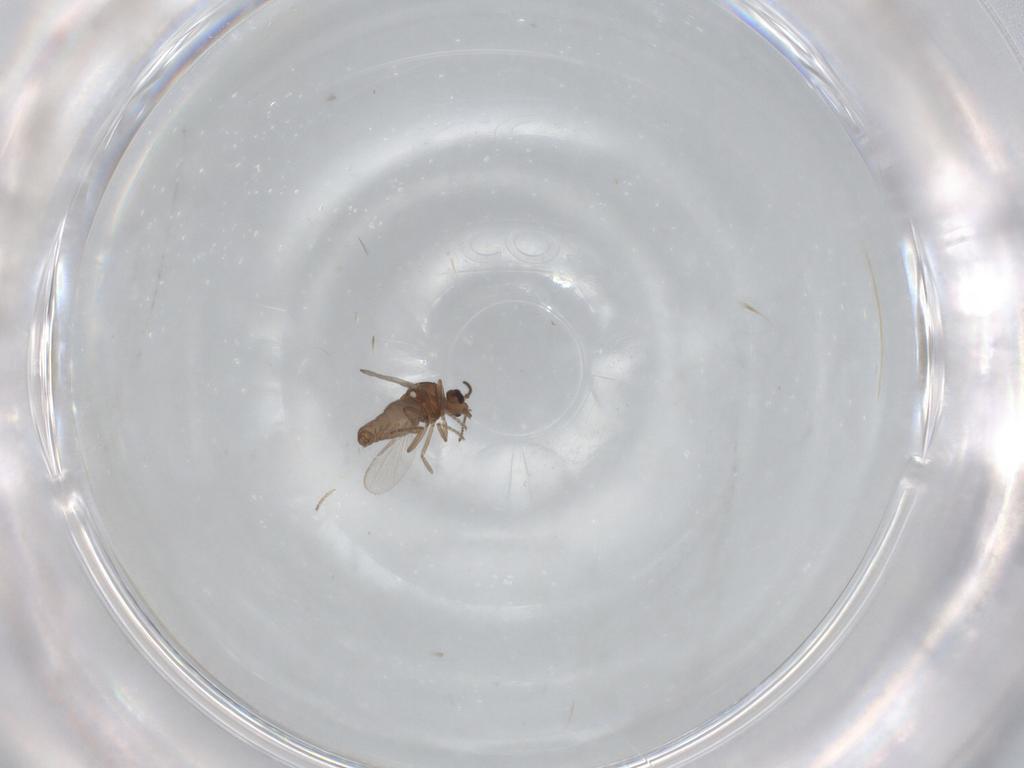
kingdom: Animalia
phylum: Arthropoda
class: Insecta
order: Diptera
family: Ceratopogonidae
